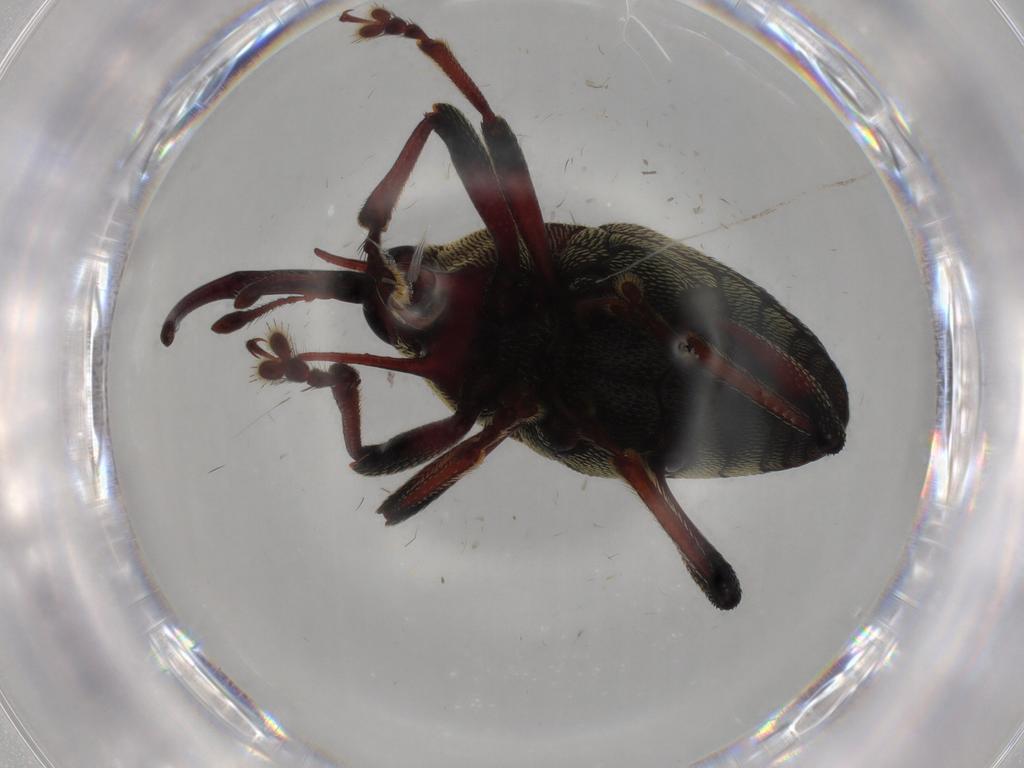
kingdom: Animalia
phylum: Arthropoda
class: Insecta
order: Coleoptera
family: Curculionidae
